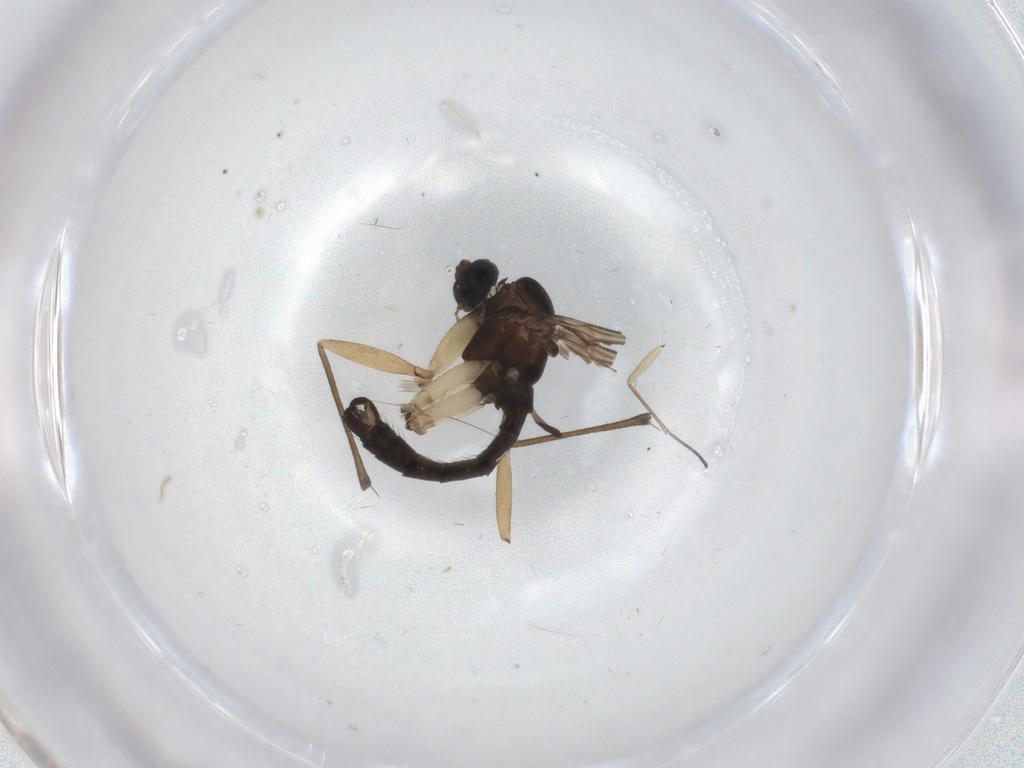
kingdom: Animalia
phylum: Arthropoda
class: Insecta
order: Diptera
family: Sciaridae
